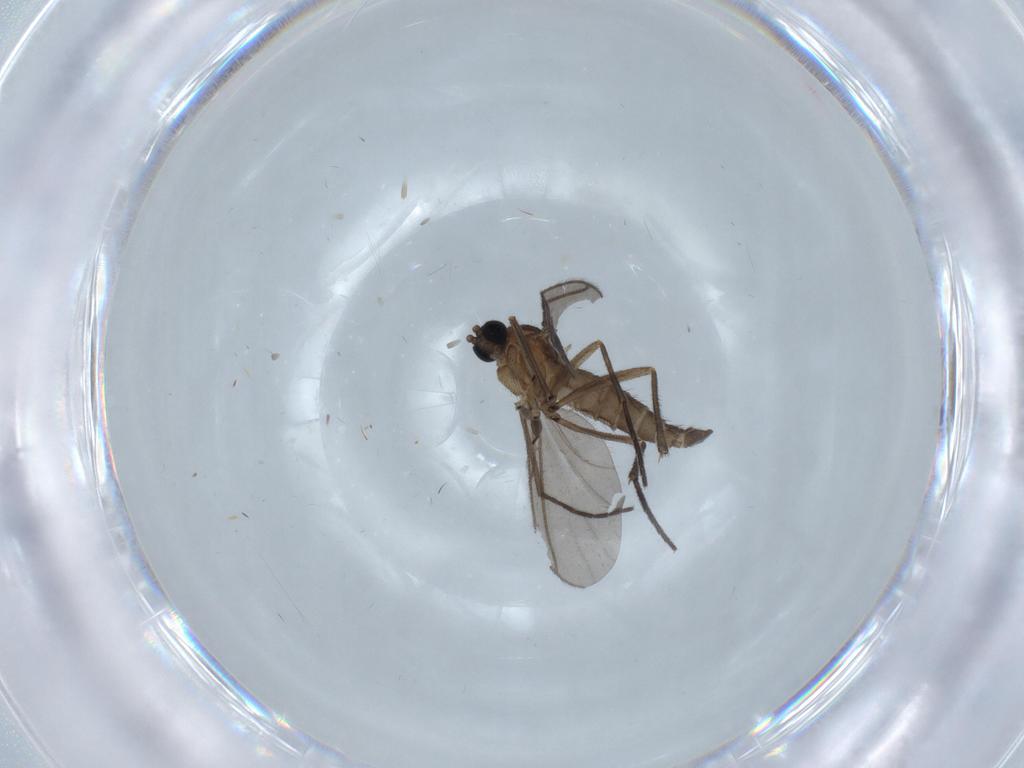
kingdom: Animalia
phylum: Arthropoda
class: Insecta
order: Diptera
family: Sciaridae
